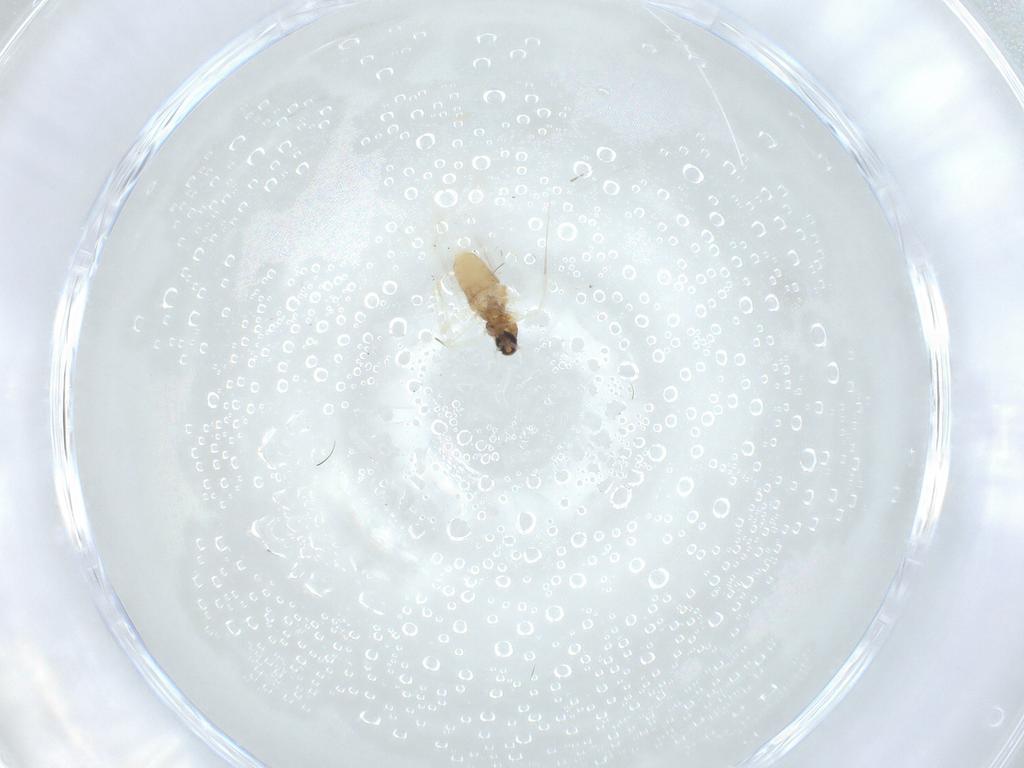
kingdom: Animalia
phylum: Arthropoda
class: Insecta
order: Diptera
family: Cecidomyiidae
